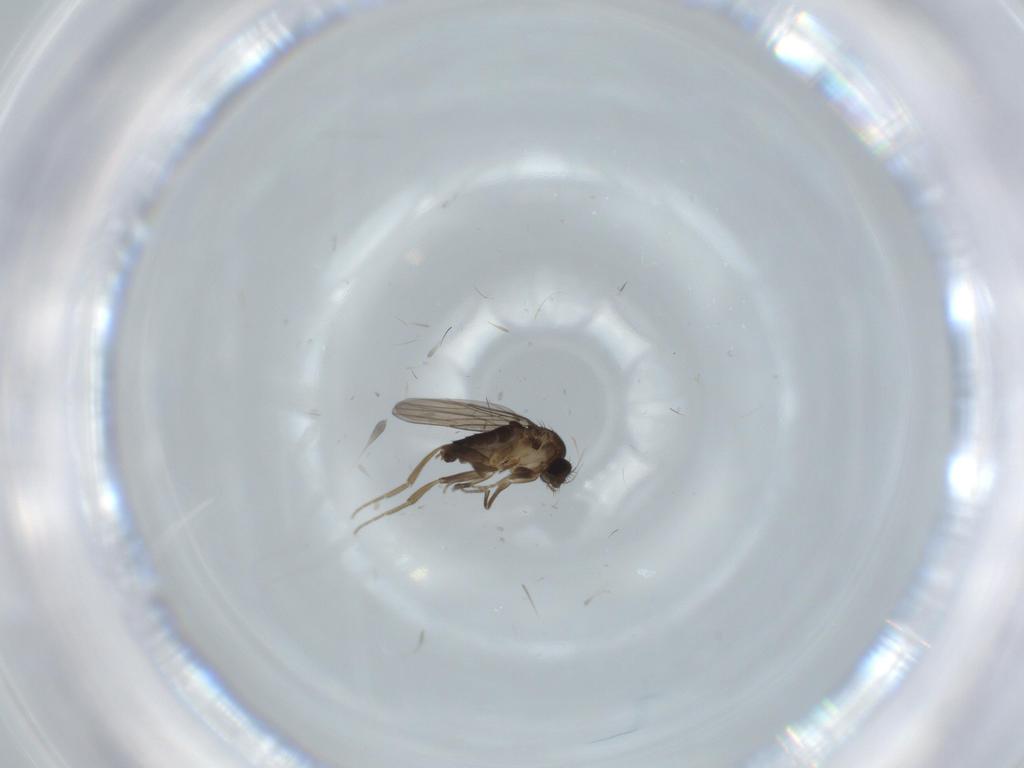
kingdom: Animalia
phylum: Arthropoda
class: Insecta
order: Diptera
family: Phoridae
